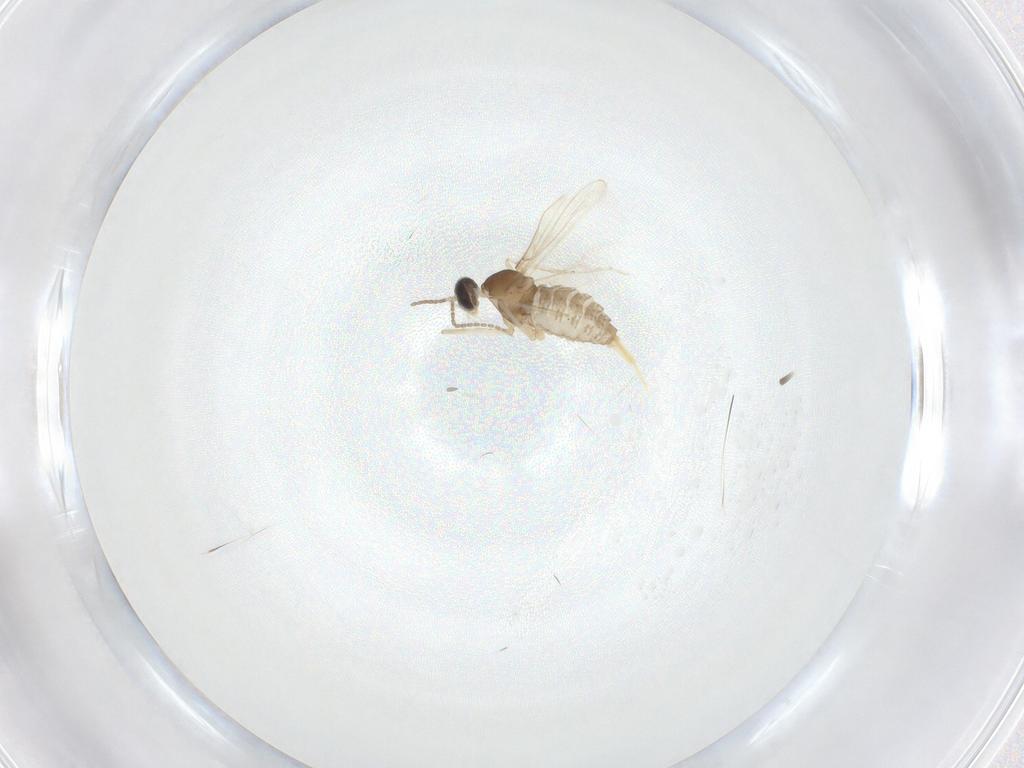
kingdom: Animalia
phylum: Arthropoda
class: Insecta
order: Diptera
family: Cecidomyiidae
